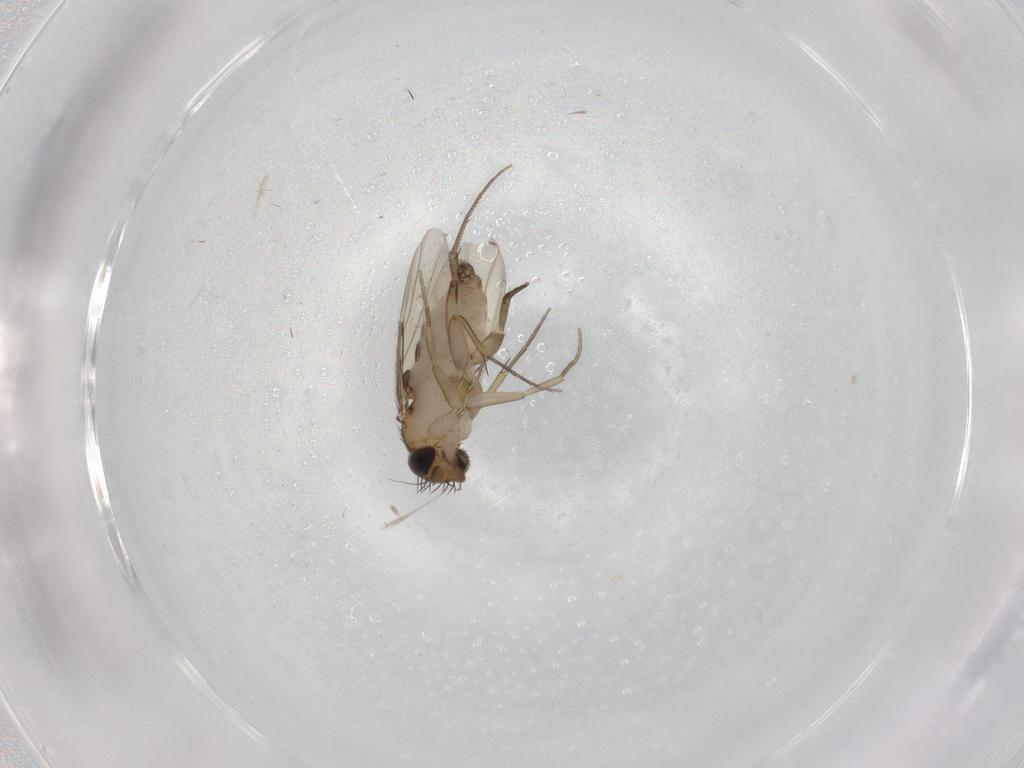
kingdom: Animalia
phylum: Arthropoda
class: Insecta
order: Diptera
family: Phoridae
